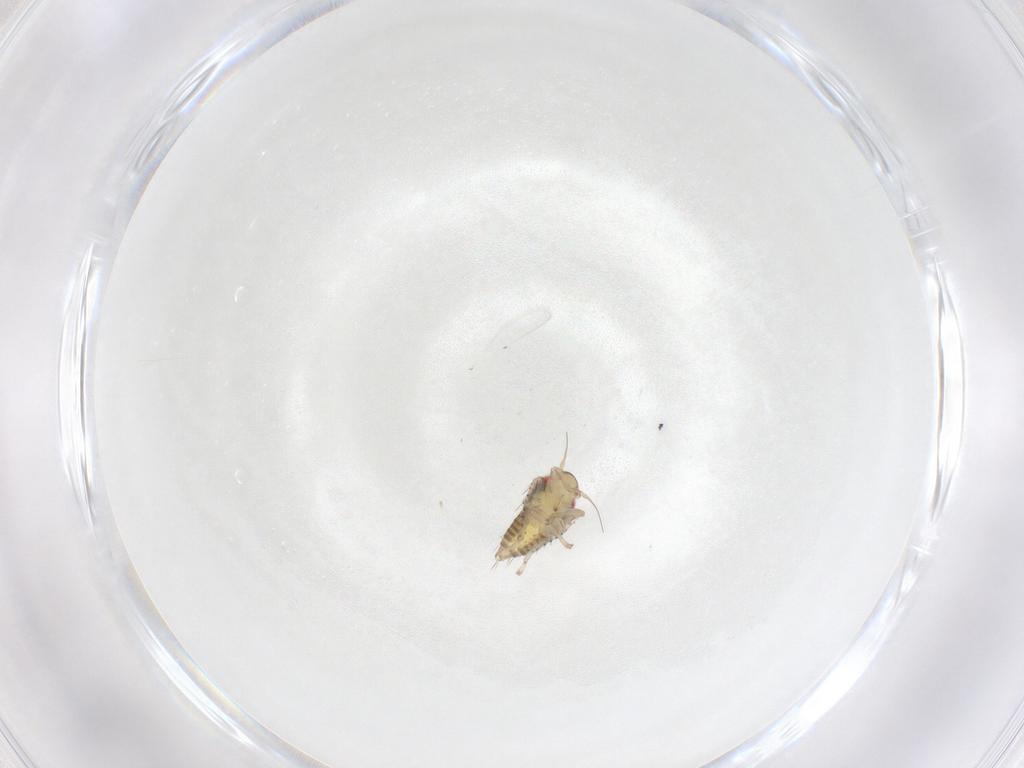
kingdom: Animalia
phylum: Arthropoda
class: Insecta
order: Hemiptera
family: Cicadellidae
